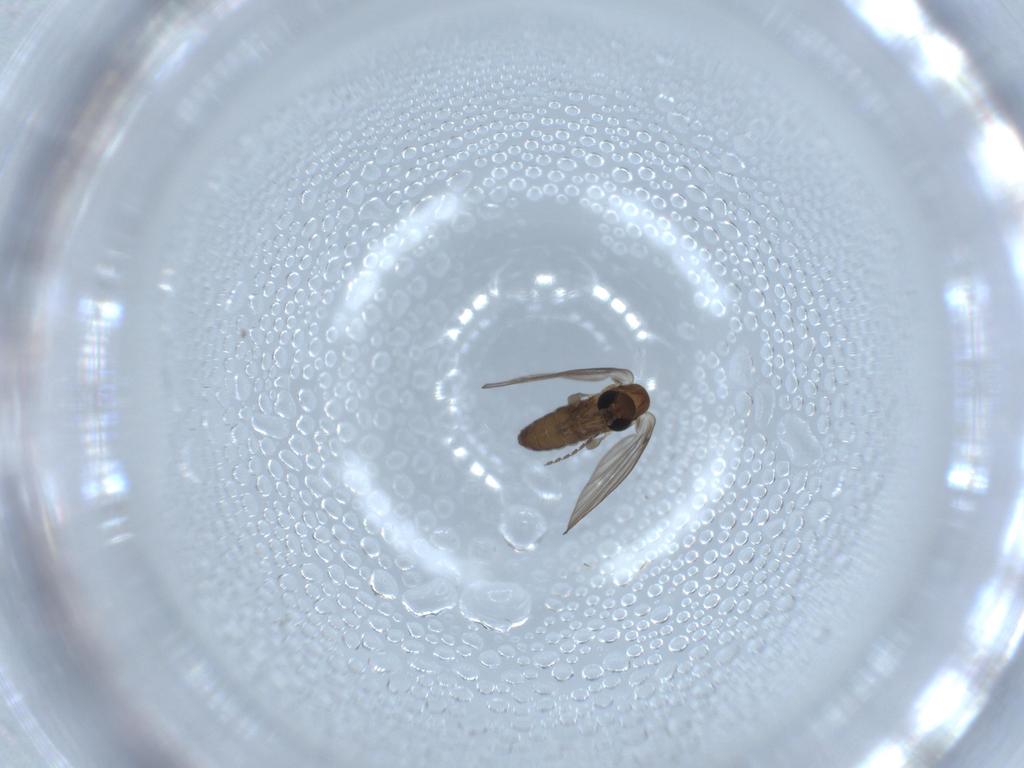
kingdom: Animalia
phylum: Arthropoda
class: Insecta
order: Diptera
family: Psychodidae
